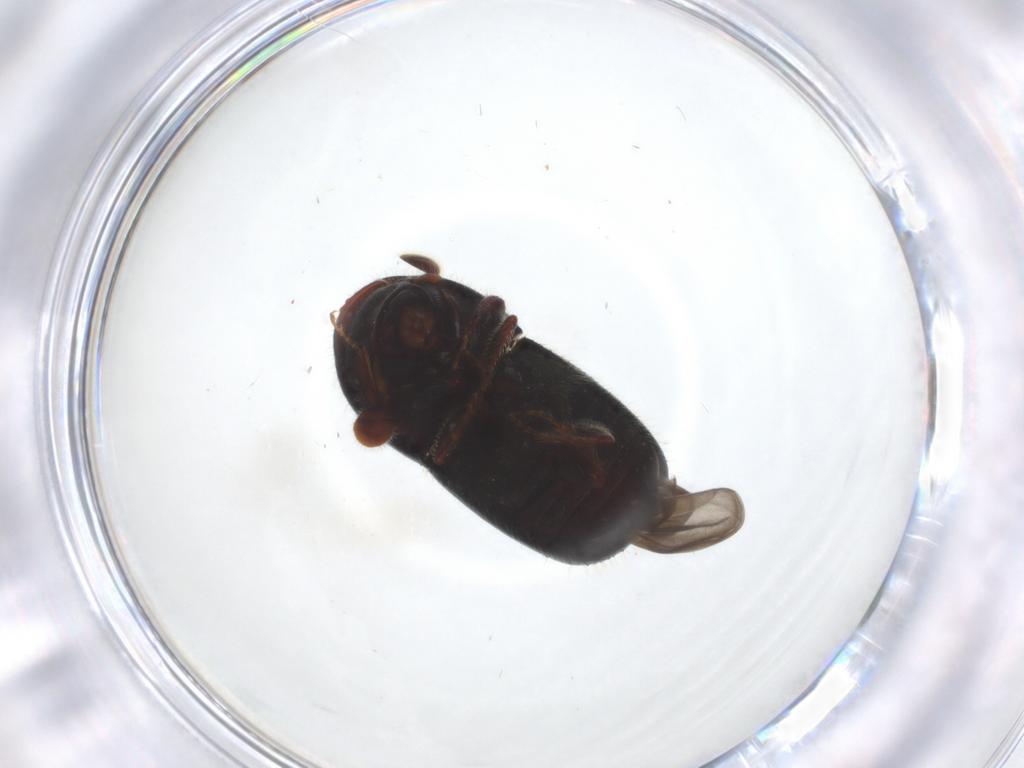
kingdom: Animalia
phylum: Arthropoda
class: Insecta
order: Coleoptera
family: Curculionidae
